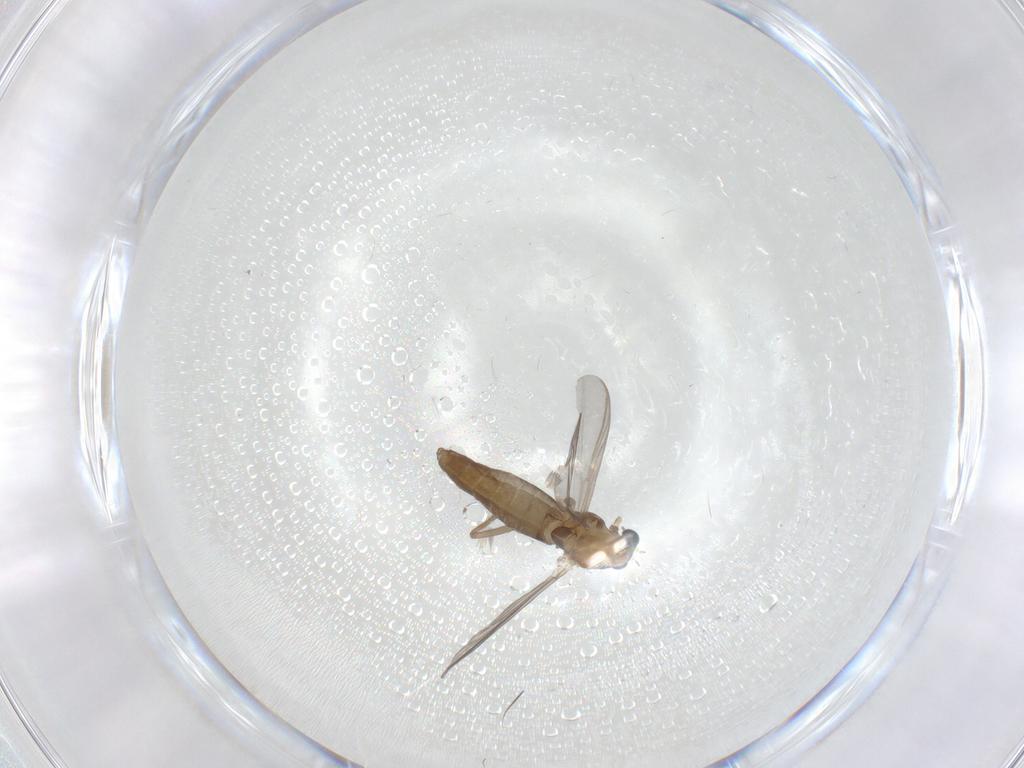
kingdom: Animalia
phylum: Arthropoda
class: Insecta
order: Diptera
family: Chironomidae
